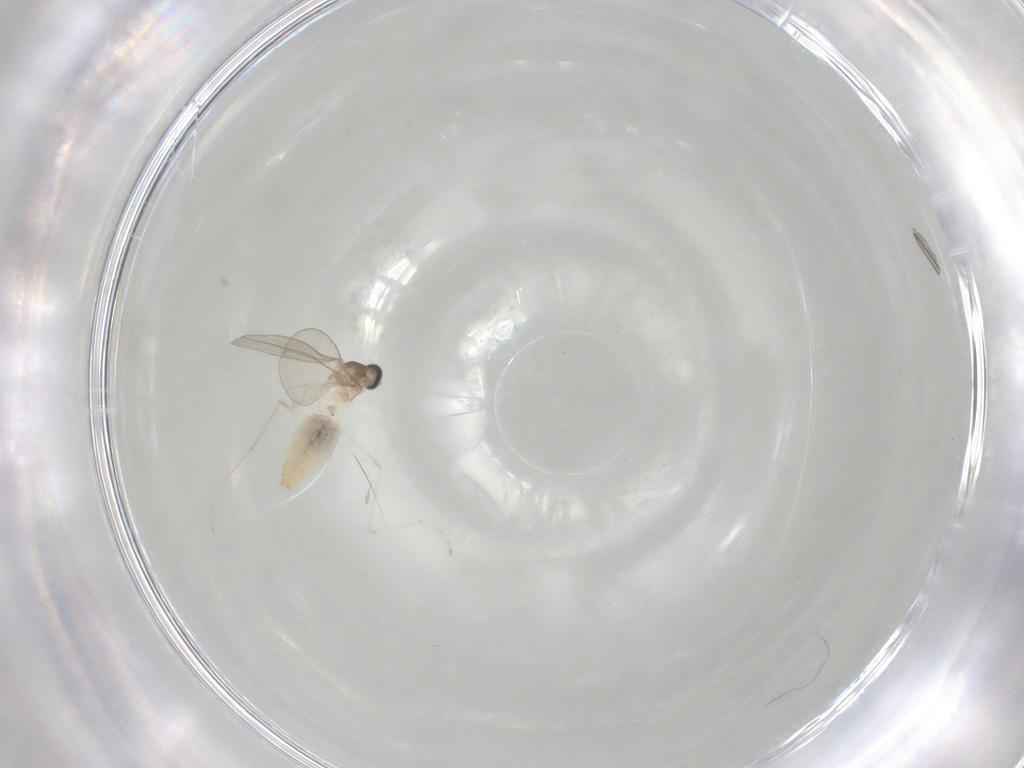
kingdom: Animalia
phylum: Arthropoda
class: Insecta
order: Diptera
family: Cecidomyiidae
